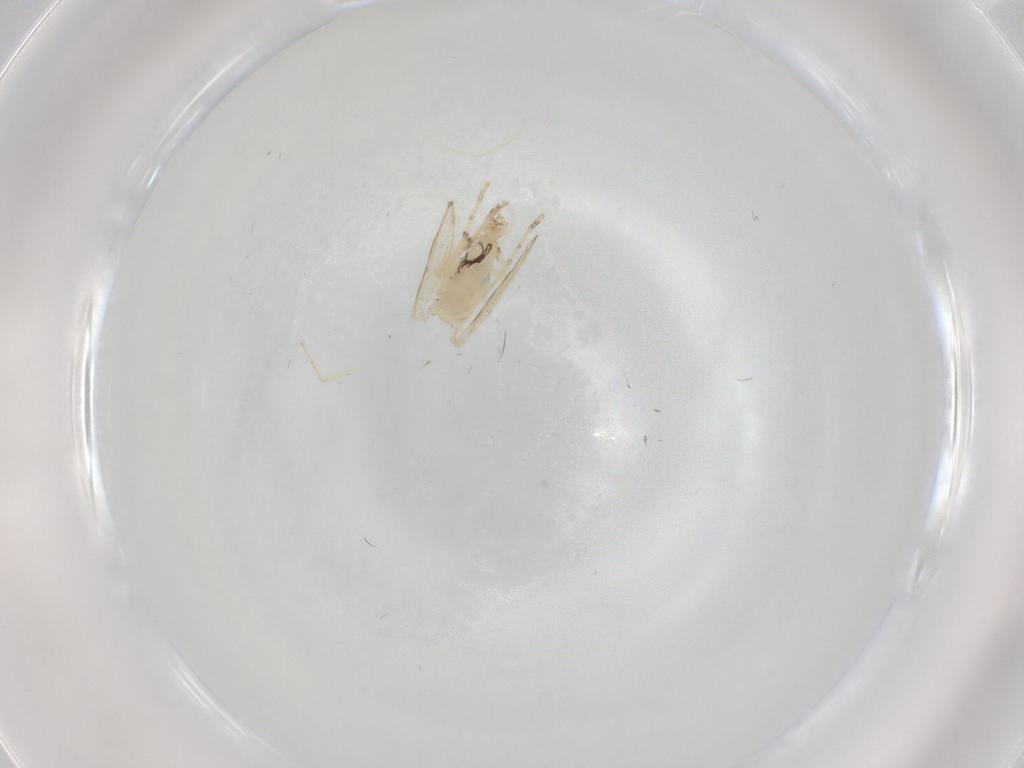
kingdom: Animalia
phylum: Arthropoda
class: Insecta
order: Diptera
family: Psychodidae
